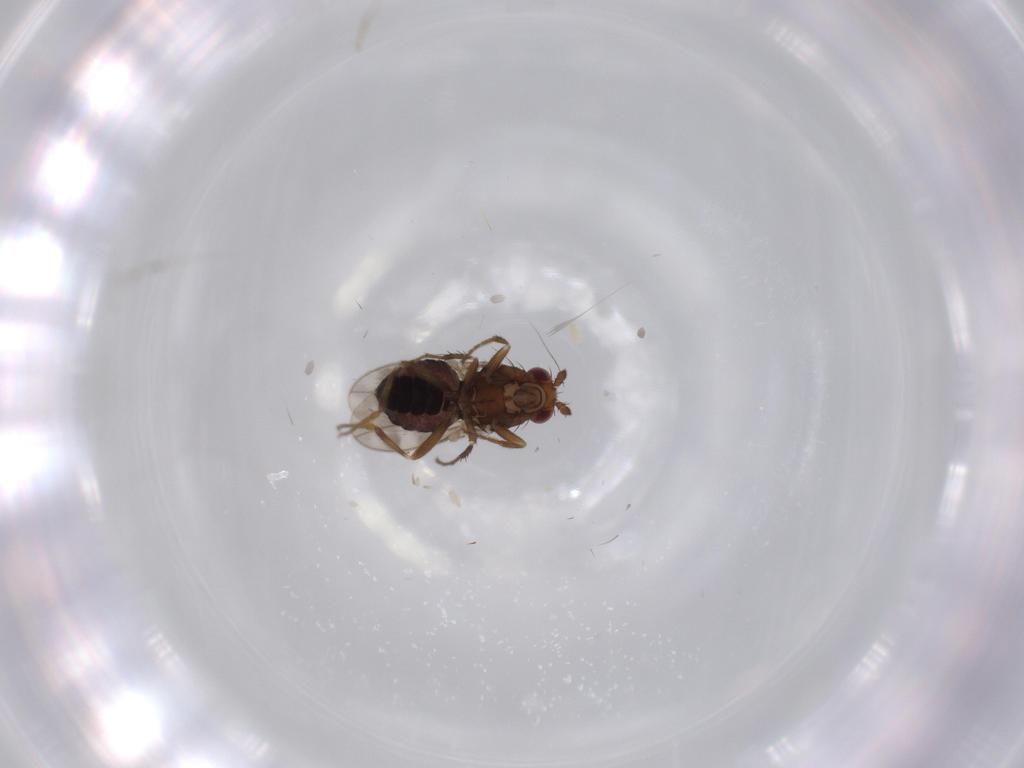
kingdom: Animalia
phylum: Arthropoda
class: Insecta
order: Diptera
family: Sphaeroceridae
